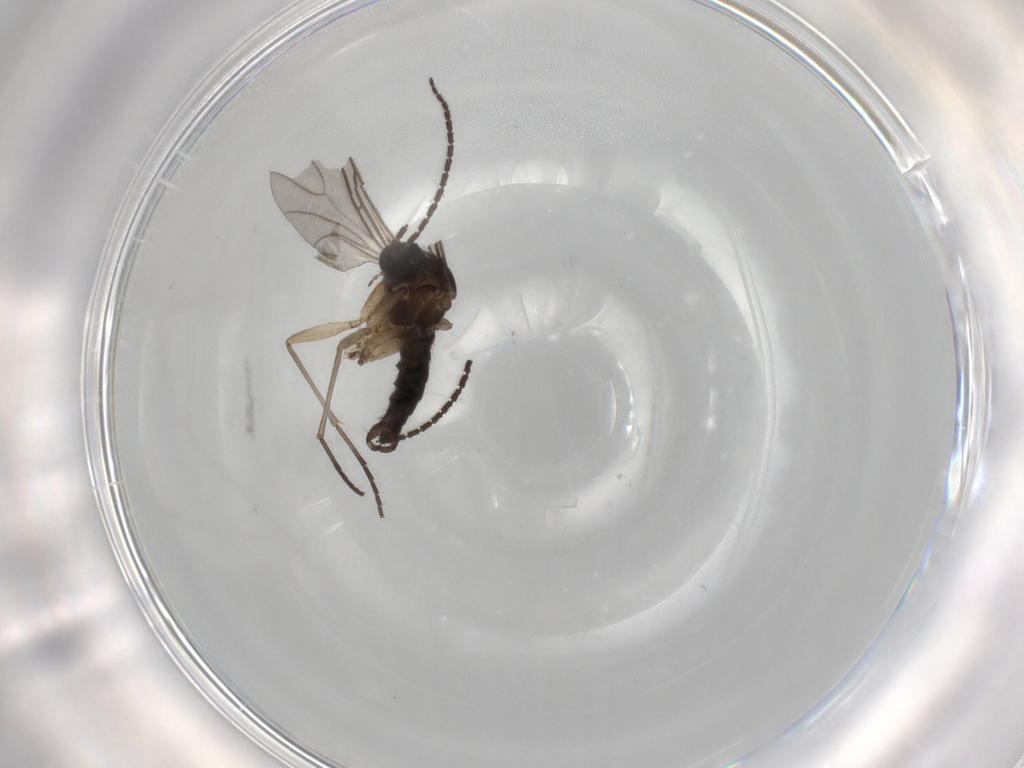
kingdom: Animalia
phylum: Arthropoda
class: Insecta
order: Diptera
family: Sciaridae
